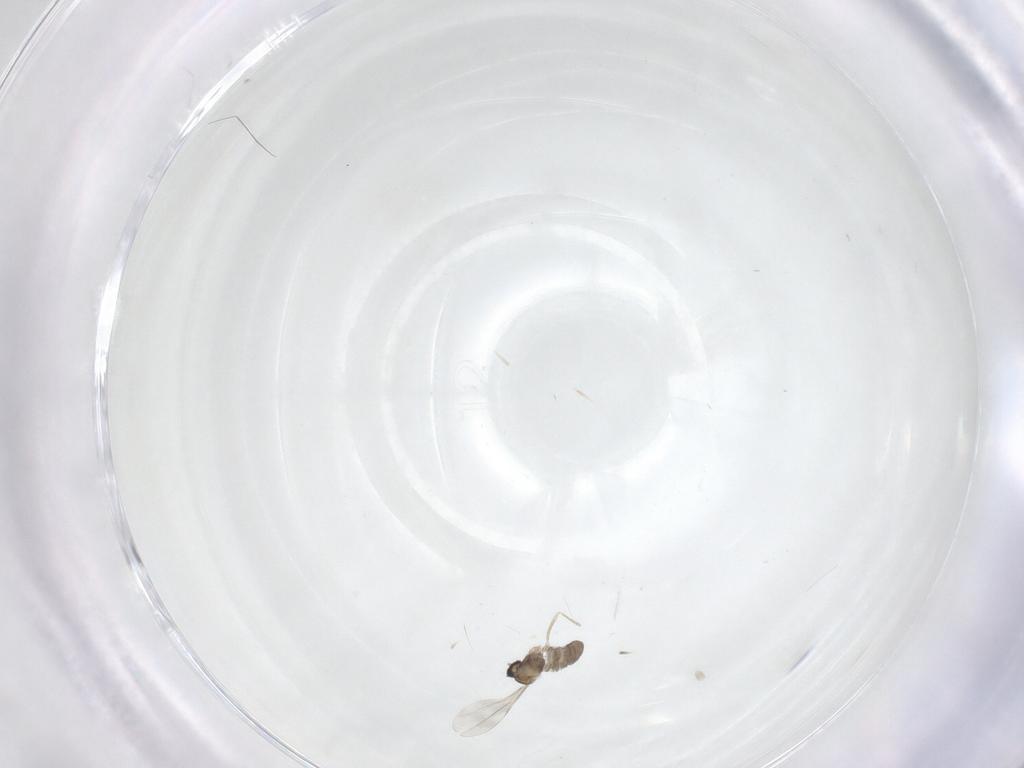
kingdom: Animalia
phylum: Arthropoda
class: Insecta
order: Diptera
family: Cecidomyiidae
